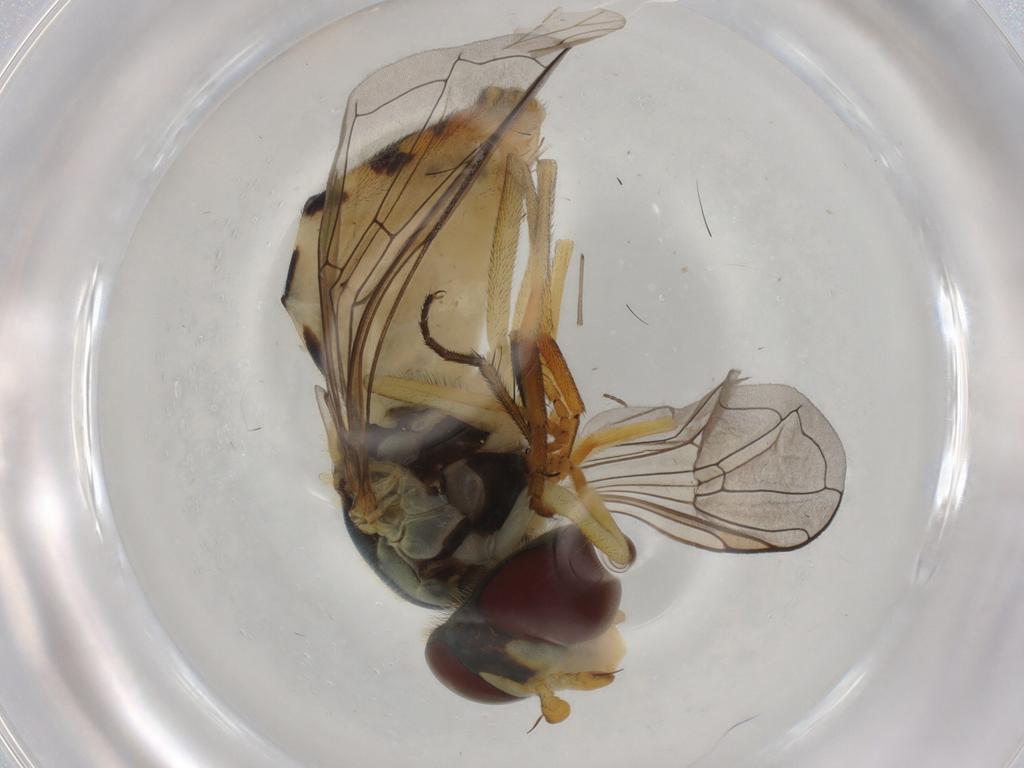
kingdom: Animalia
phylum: Arthropoda
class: Insecta
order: Diptera
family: Syrphidae
